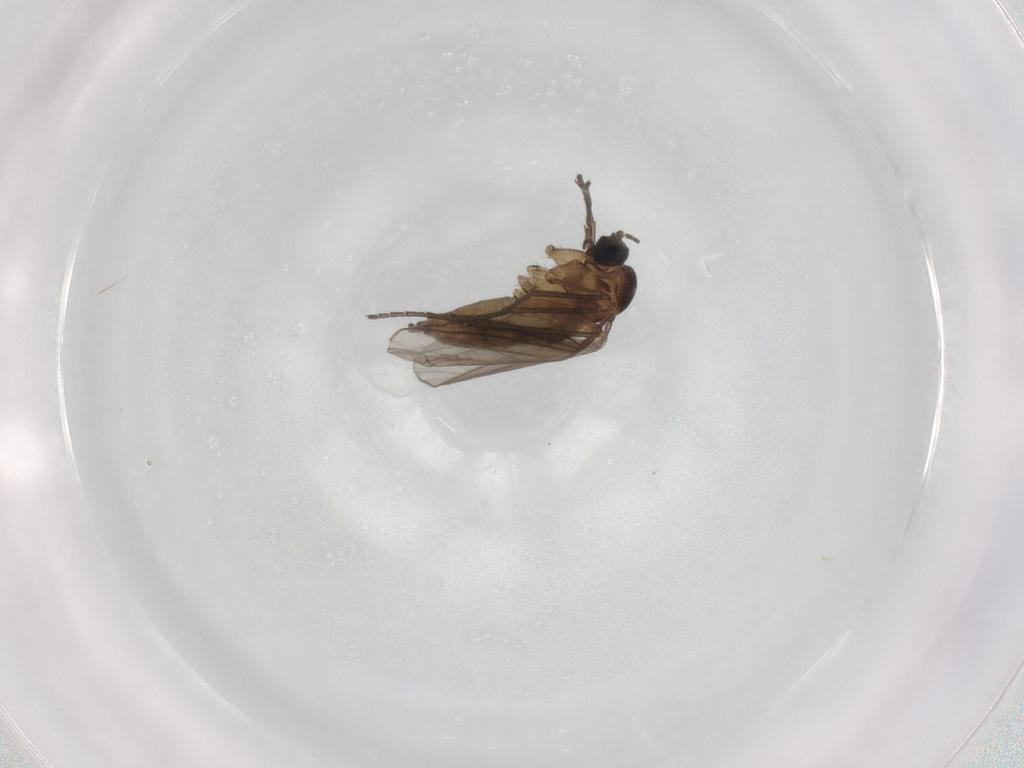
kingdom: Animalia
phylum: Arthropoda
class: Insecta
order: Diptera
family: Sciaridae
